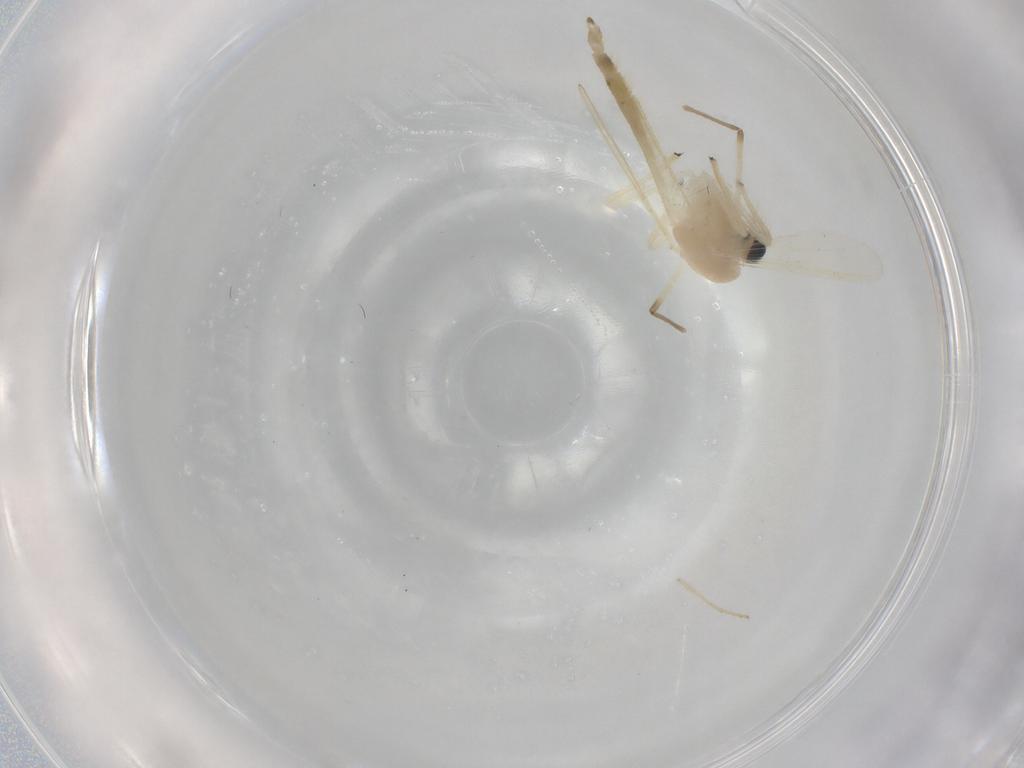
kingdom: Animalia
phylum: Arthropoda
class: Insecta
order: Diptera
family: Chironomidae
